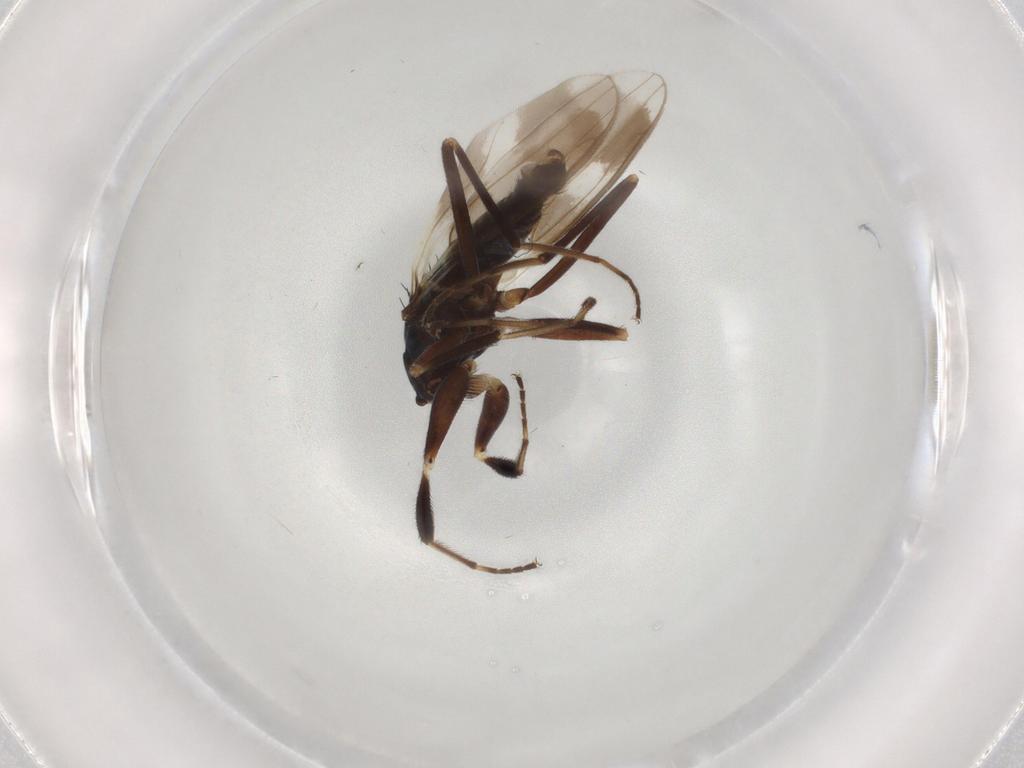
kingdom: Animalia
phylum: Arthropoda
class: Insecta
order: Diptera
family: Hybotidae
